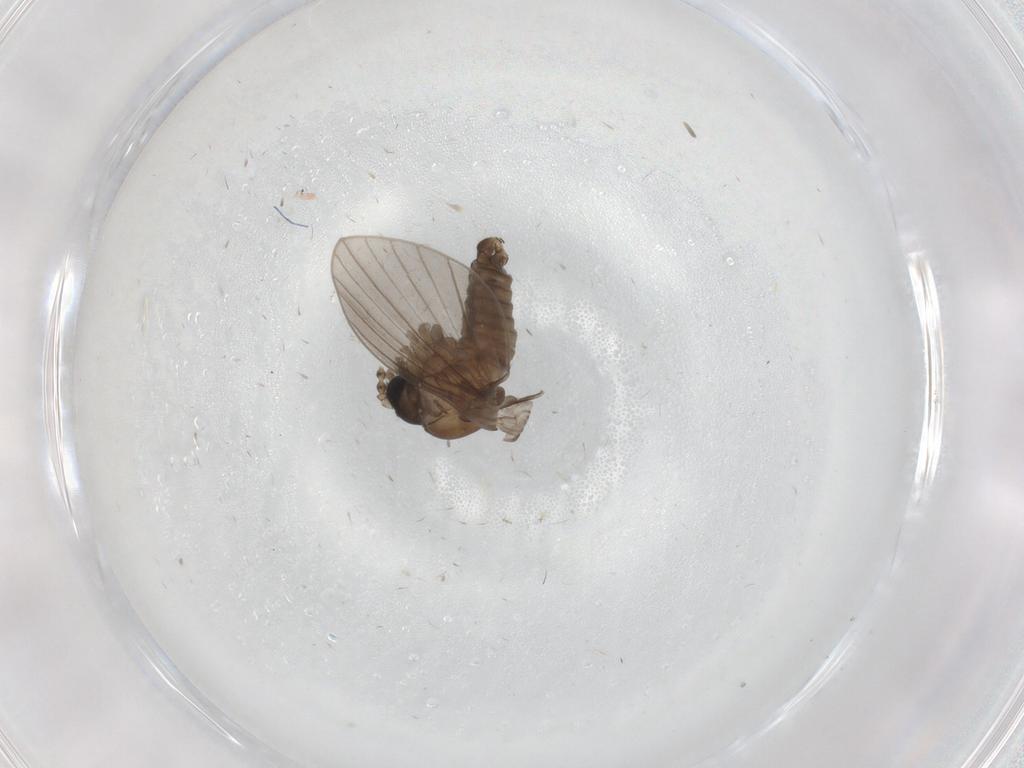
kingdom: Animalia
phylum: Arthropoda
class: Insecta
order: Diptera
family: Psychodidae
